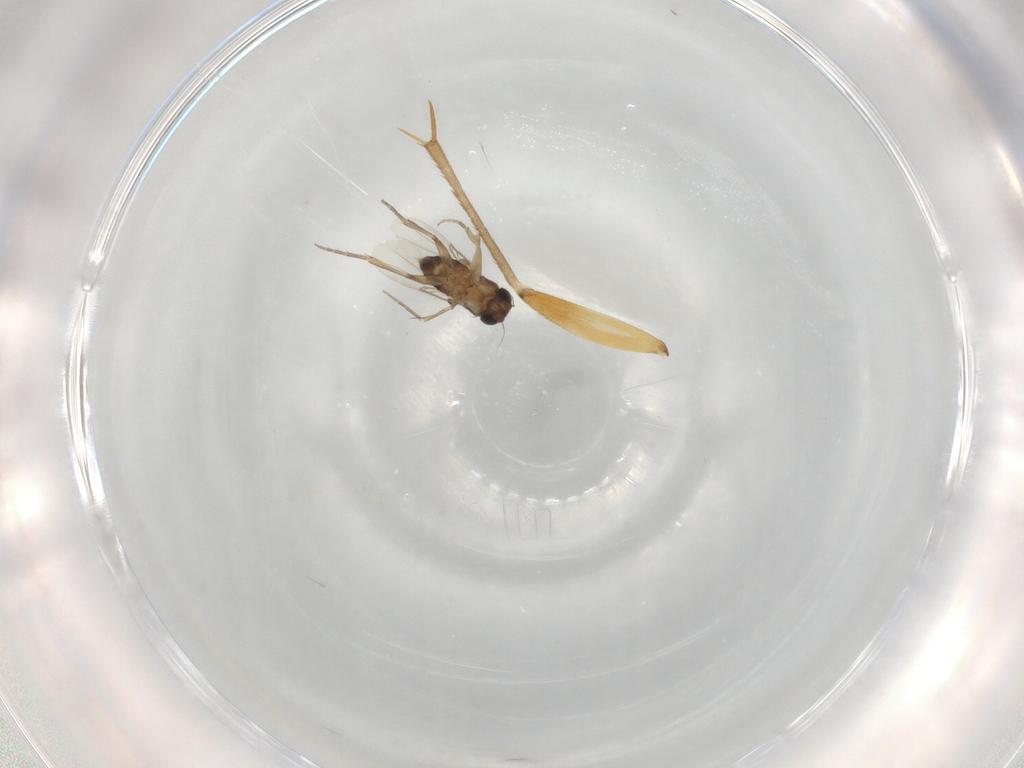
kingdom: Animalia
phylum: Arthropoda
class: Insecta
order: Diptera
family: Mycetophilidae
